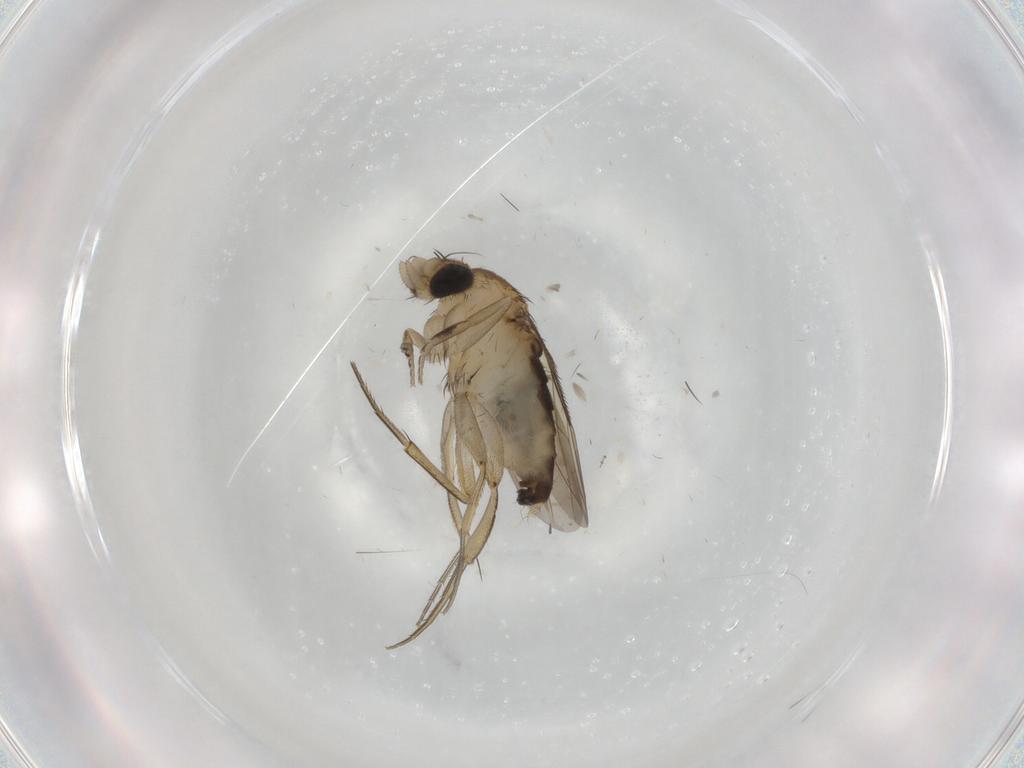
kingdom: Animalia
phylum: Arthropoda
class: Insecta
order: Diptera
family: Phoridae
